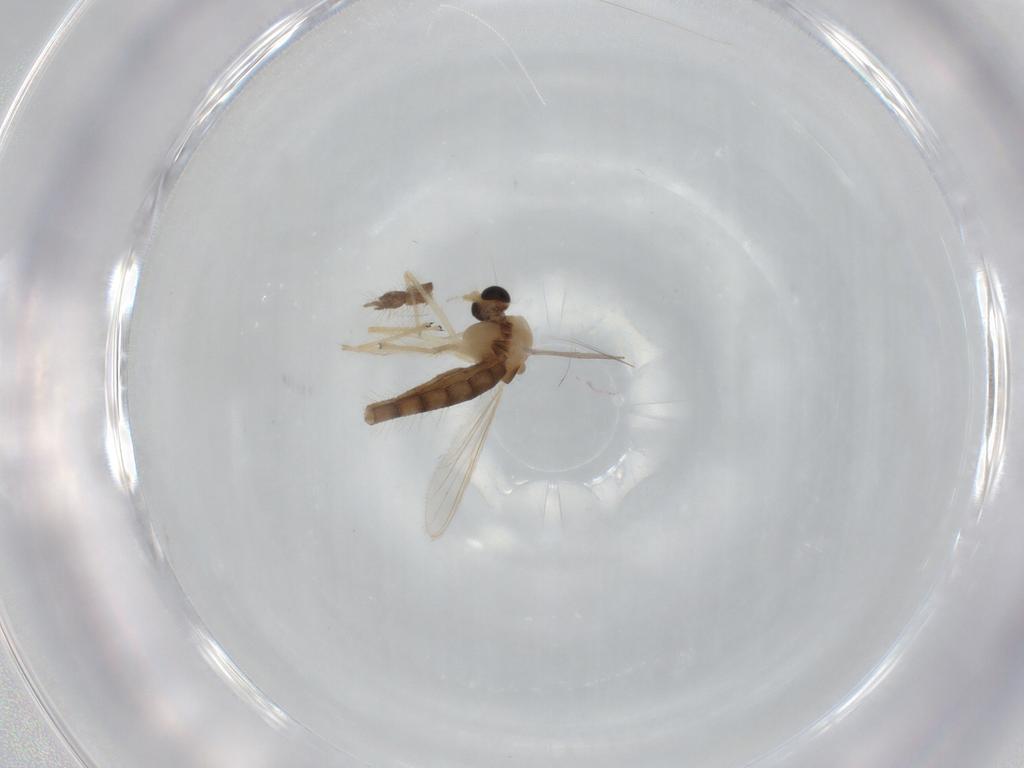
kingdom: Animalia
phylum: Arthropoda
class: Insecta
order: Diptera
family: Chironomidae
